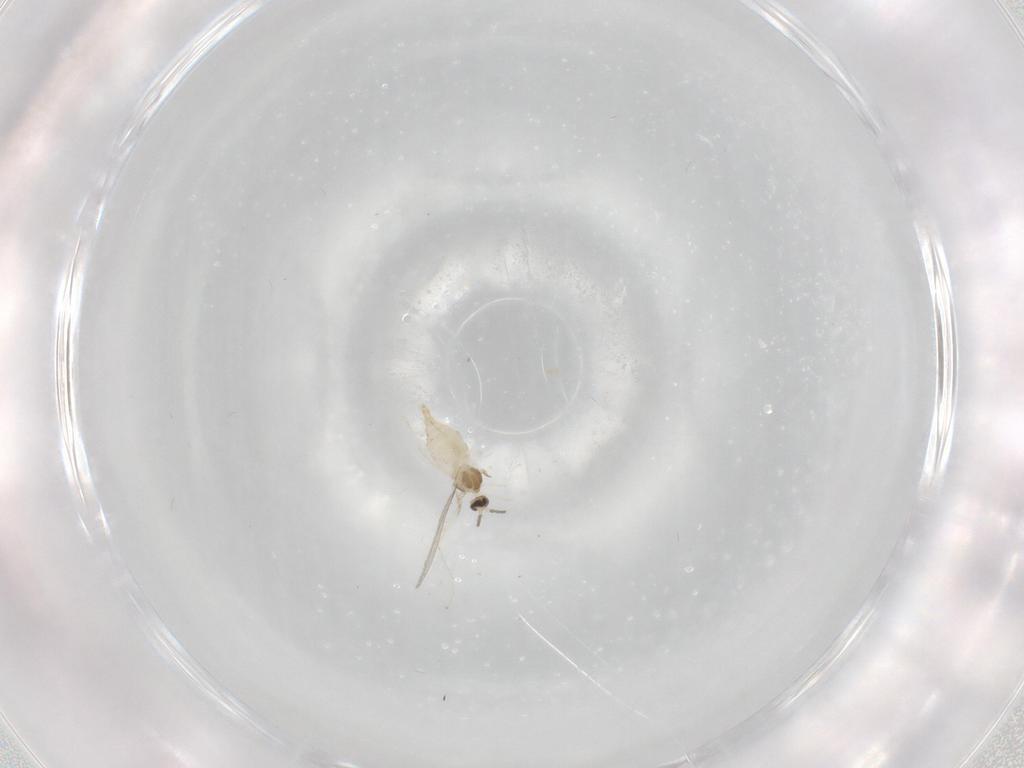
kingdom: Animalia
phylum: Arthropoda
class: Insecta
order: Diptera
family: Cecidomyiidae
